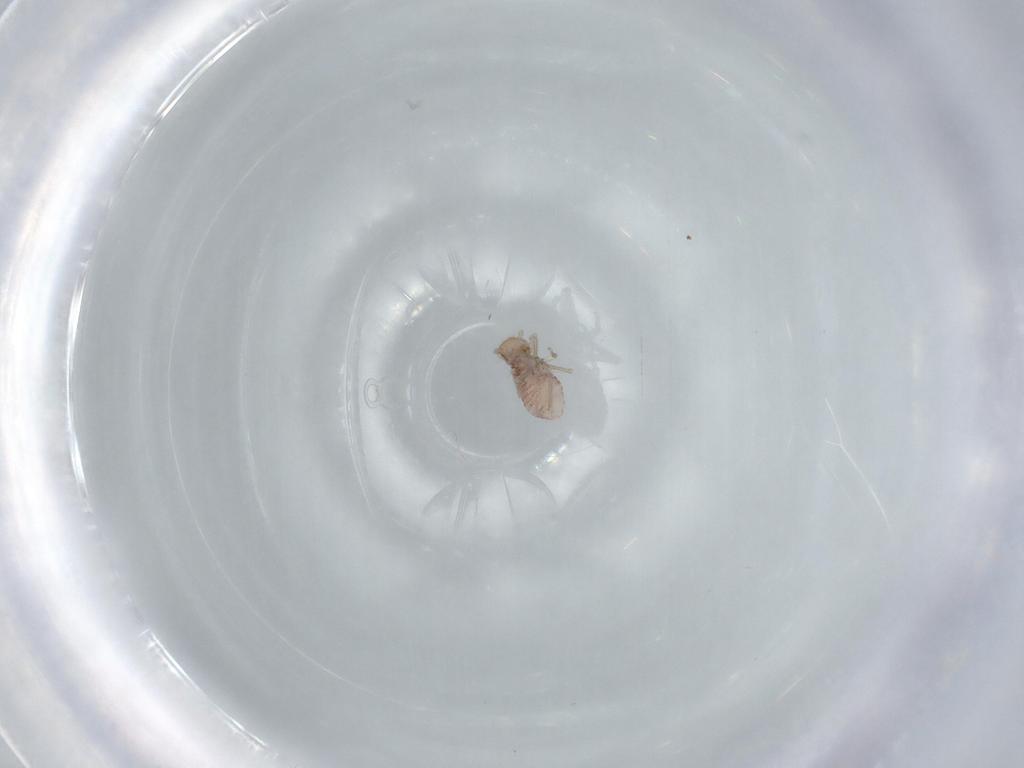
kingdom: Animalia
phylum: Arthropoda
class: Insecta
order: Psocodea
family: Ectopsocidae
